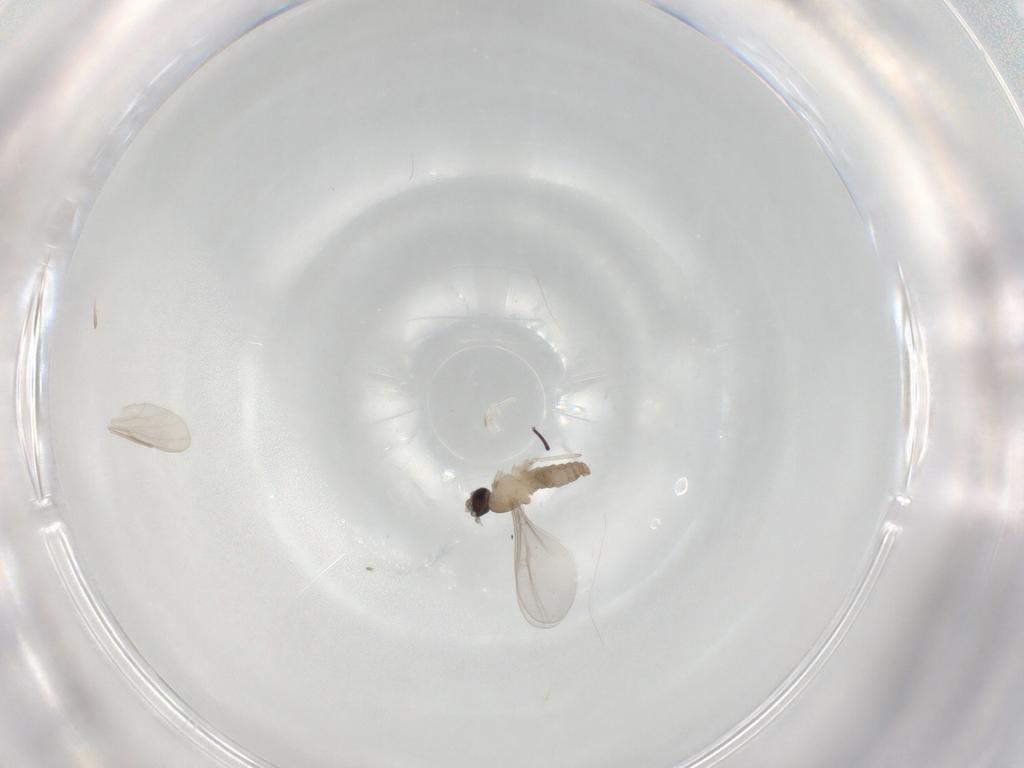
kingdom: Animalia
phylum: Arthropoda
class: Insecta
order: Diptera
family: Cecidomyiidae
